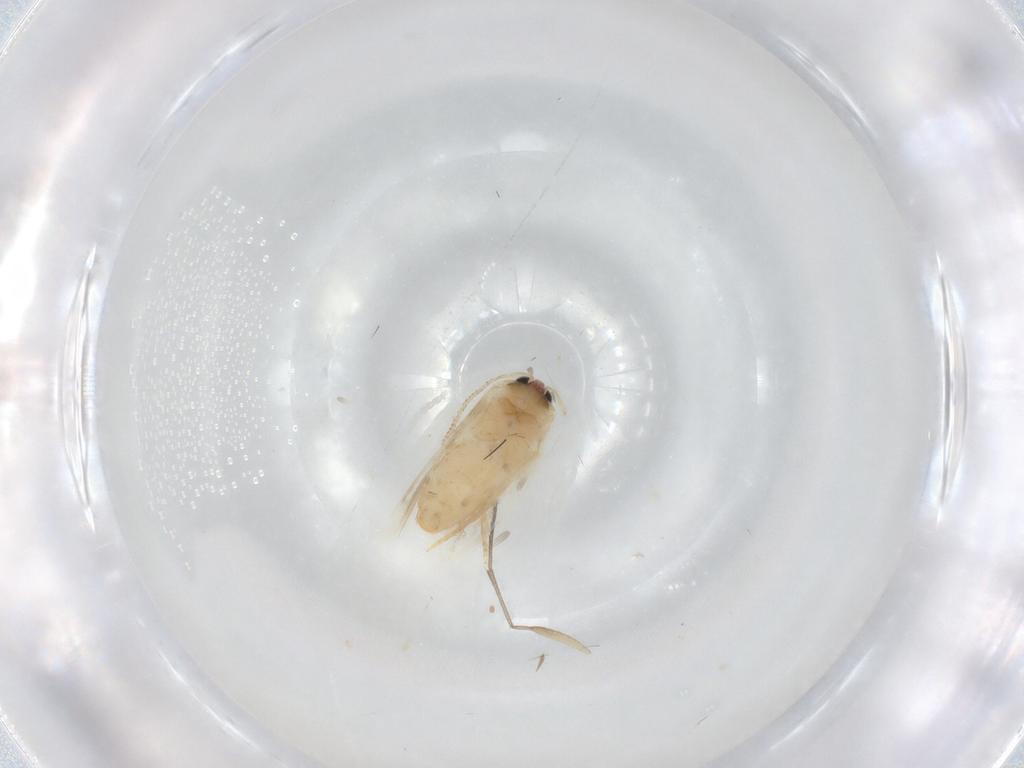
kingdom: Animalia
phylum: Arthropoda
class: Insecta
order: Lepidoptera
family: Nepticulidae
